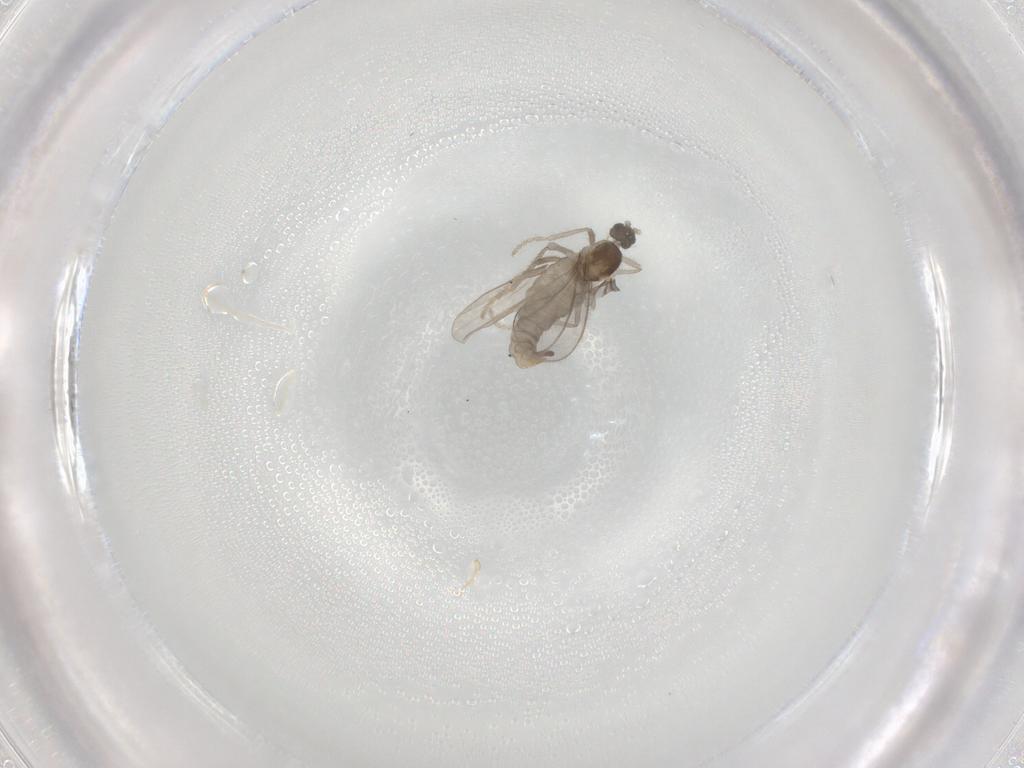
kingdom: Animalia
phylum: Arthropoda
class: Insecta
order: Diptera
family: Cecidomyiidae
